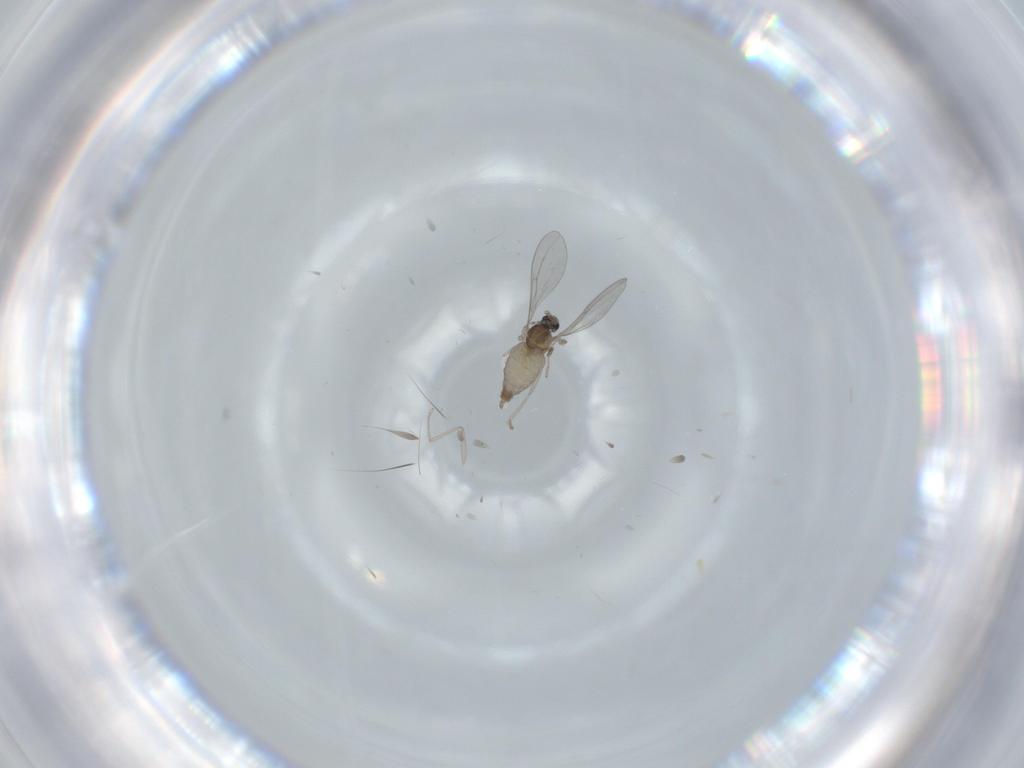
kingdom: Animalia
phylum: Arthropoda
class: Insecta
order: Diptera
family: Cecidomyiidae
